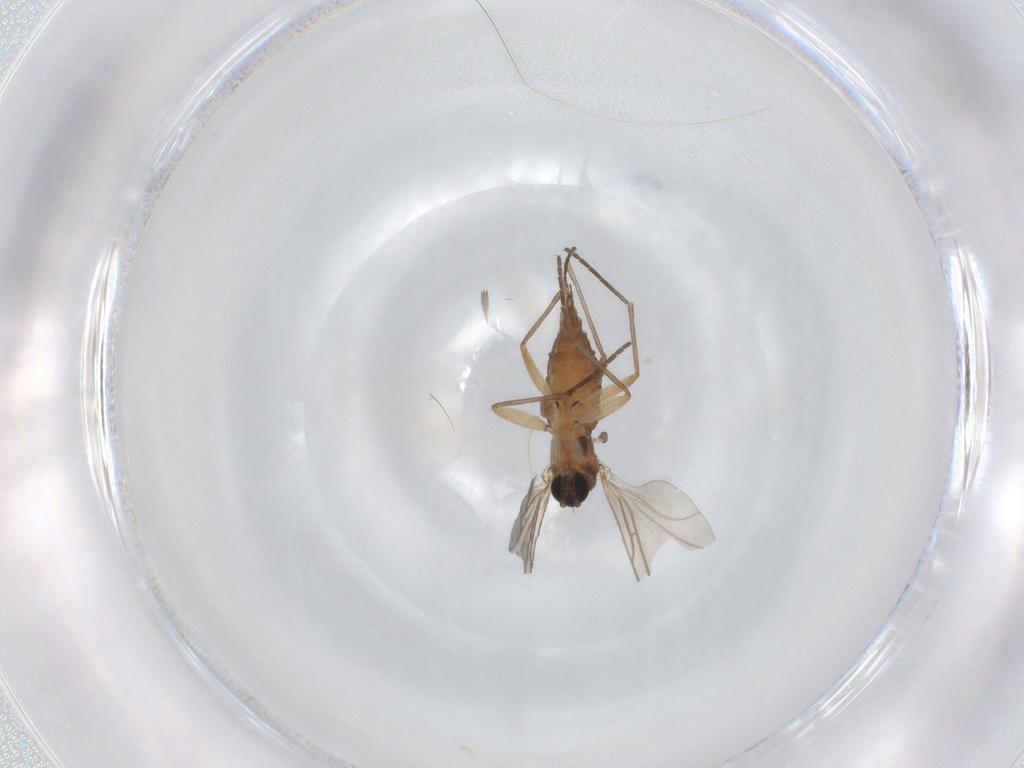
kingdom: Animalia
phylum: Arthropoda
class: Insecta
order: Diptera
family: Sciaridae
